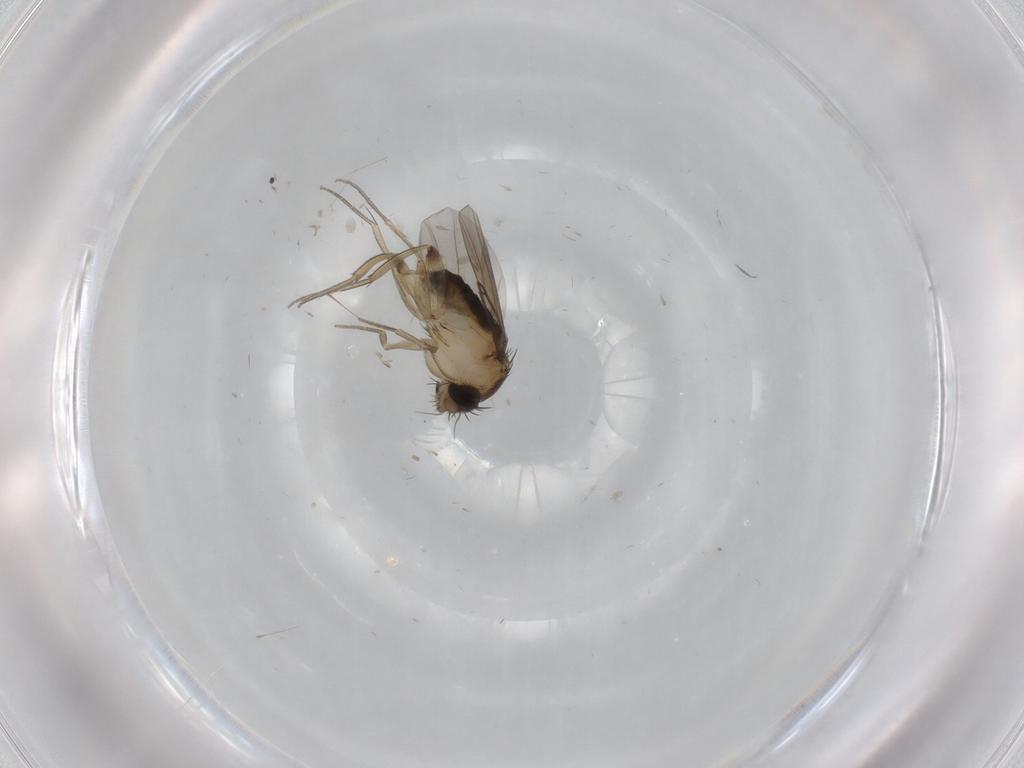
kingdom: Animalia
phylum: Arthropoda
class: Insecta
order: Diptera
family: Phoridae
